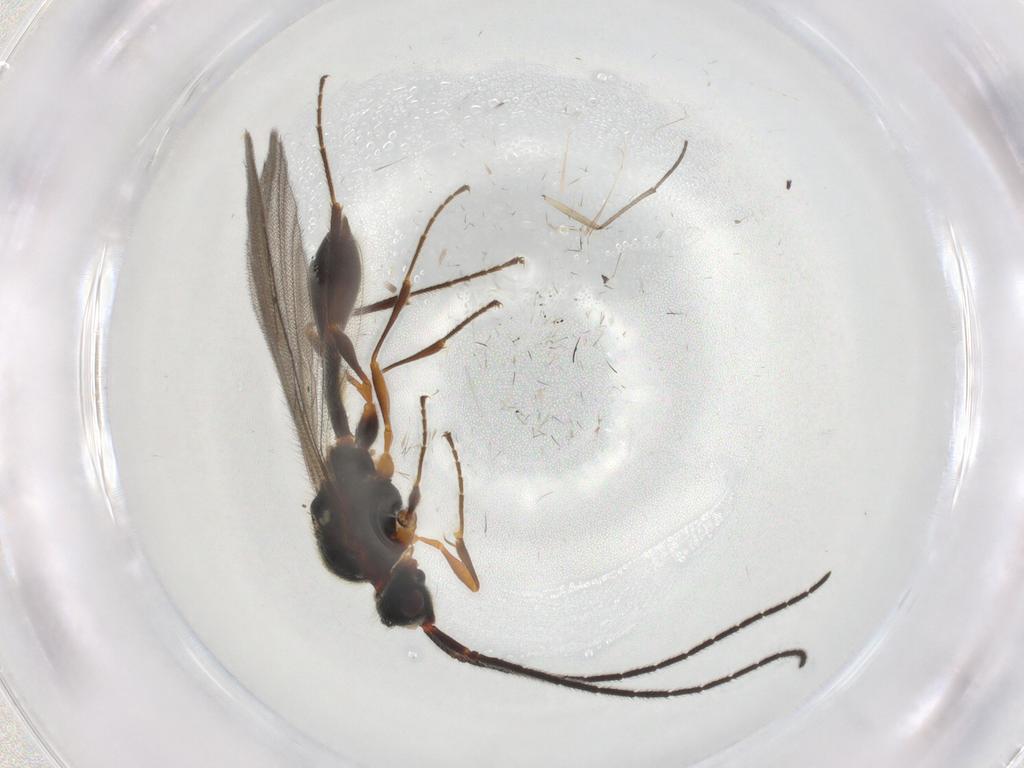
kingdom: Animalia
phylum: Arthropoda
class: Insecta
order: Hymenoptera
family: Diapriidae
